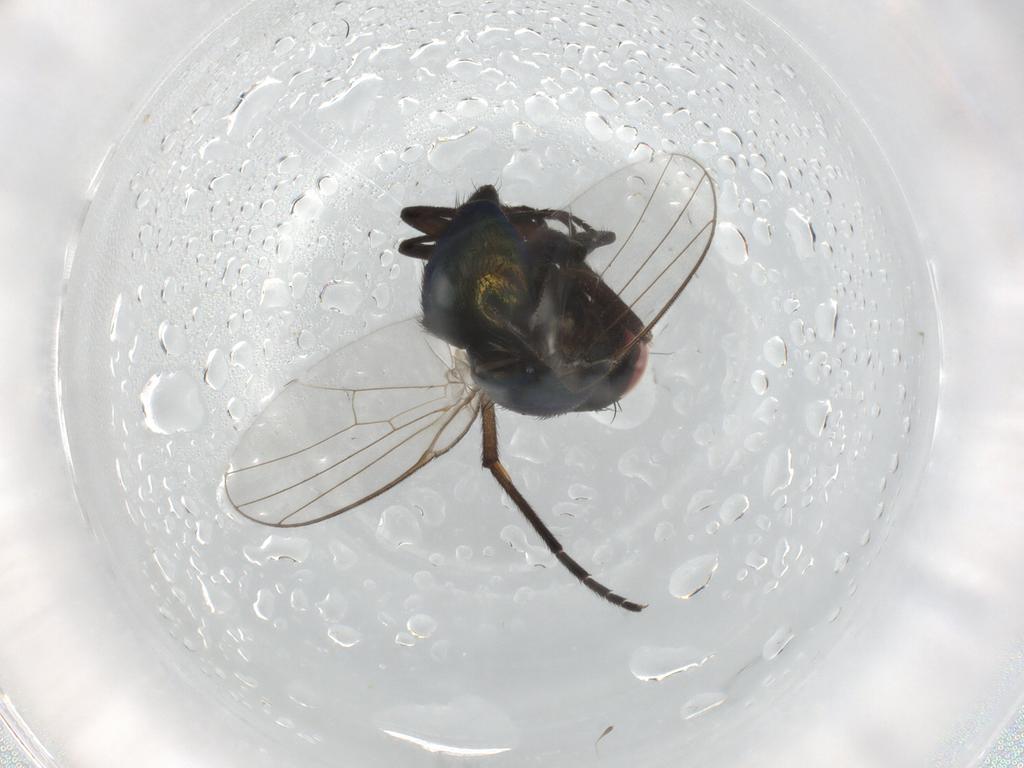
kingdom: Animalia
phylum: Arthropoda
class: Insecta
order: Diptera
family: Sciaridae
